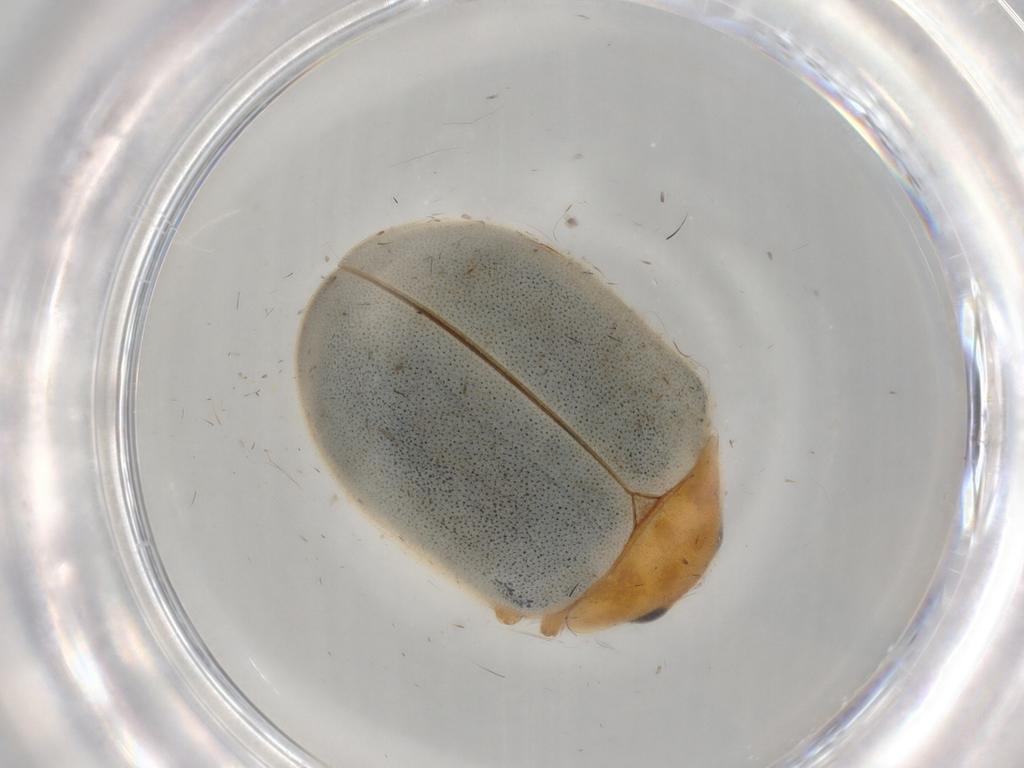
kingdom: Animalia
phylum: Arthropoda
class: Insecta
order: Coleoptera
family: Coccinellidae
